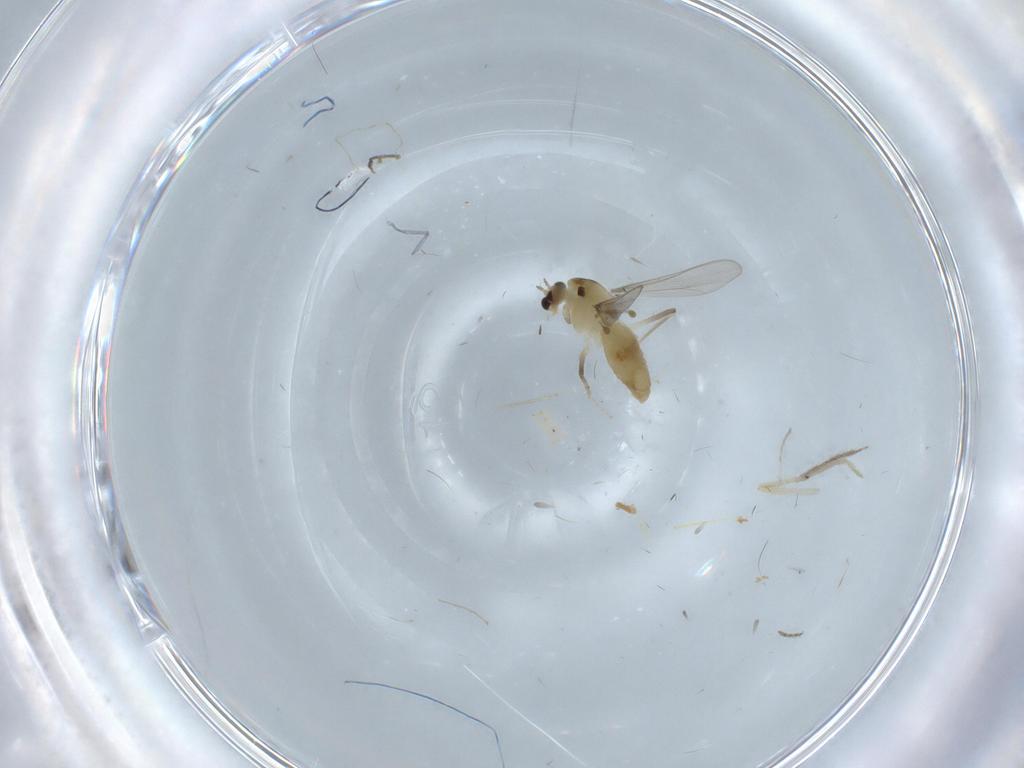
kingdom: Animalia
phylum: Arthropoda
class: Insecta
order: Diptera
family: Chironomidae
